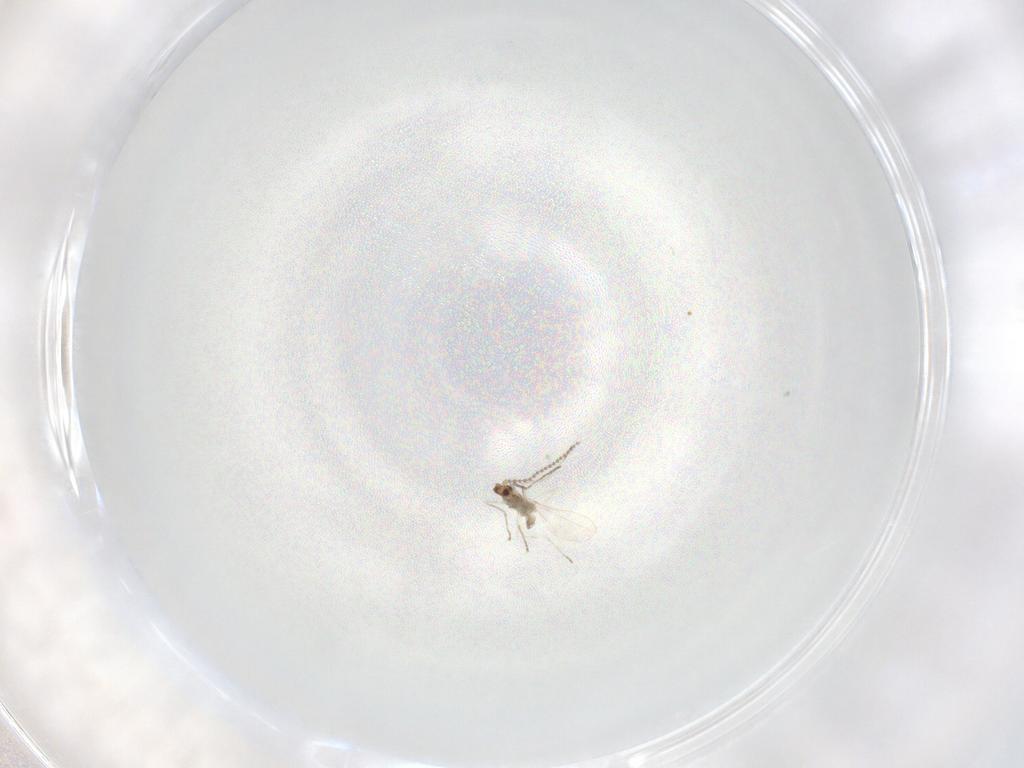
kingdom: Animalia
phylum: Arthropoda
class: Insecta
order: Diptera
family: Cecidomyiidae
